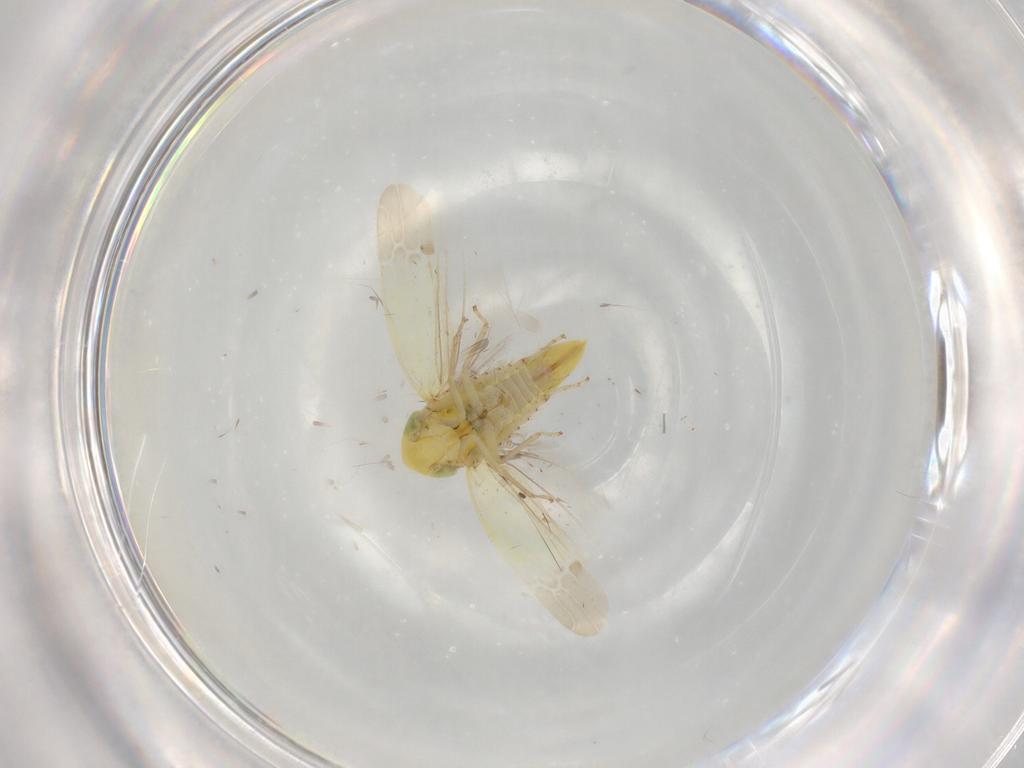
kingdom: Animalia
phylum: Arthropoda
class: Insecta
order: Hemiptera
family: Cicadellidae
